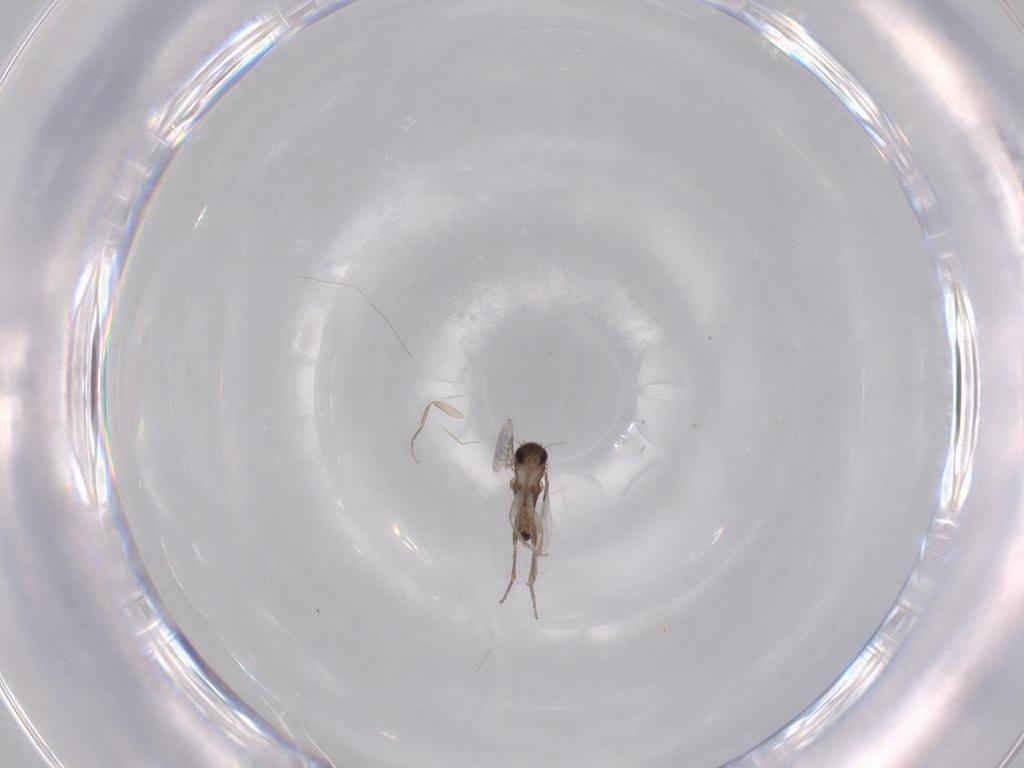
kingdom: Animalia
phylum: Arthropoda
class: Insecta
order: Diptera
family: Phoridae
